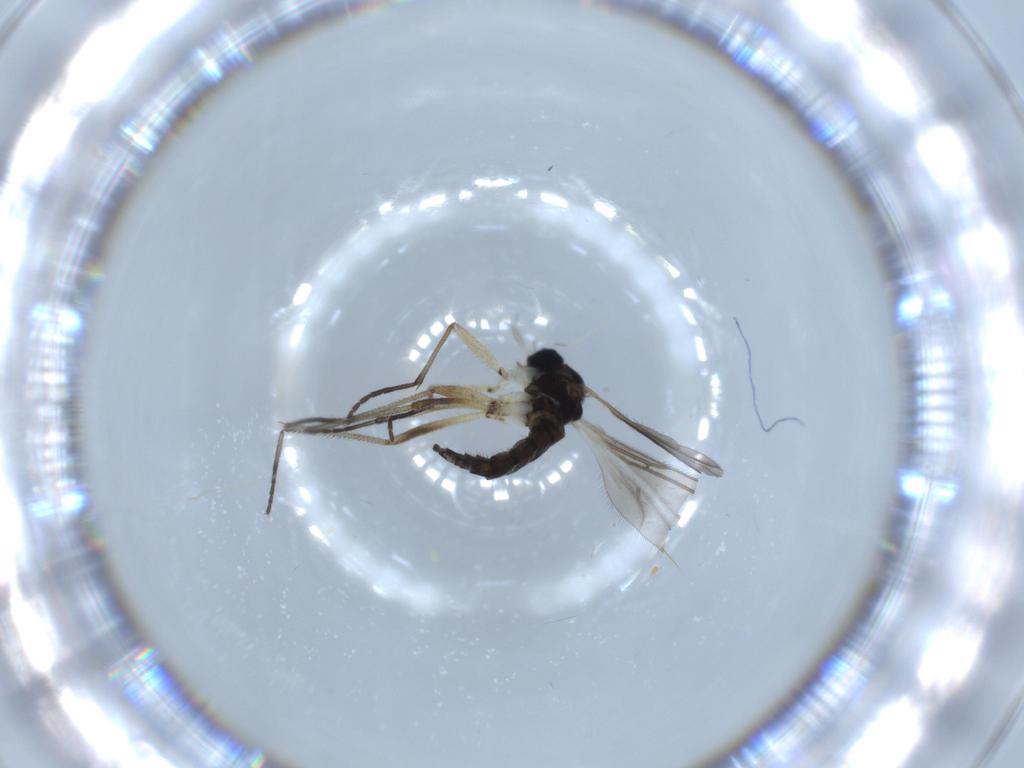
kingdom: Animalia
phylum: Arthropoda
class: Insecta
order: Diptera
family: Sciaridae
